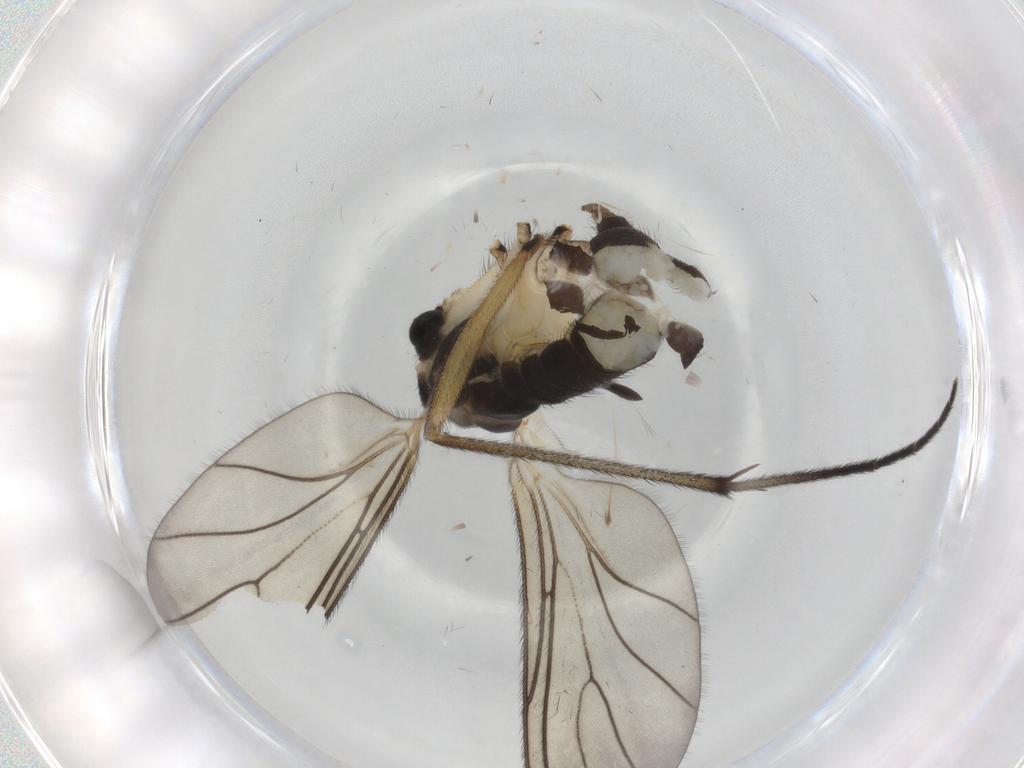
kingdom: Animalia
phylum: Arthropoda
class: Insecta
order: Diptera
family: Sciaridae
